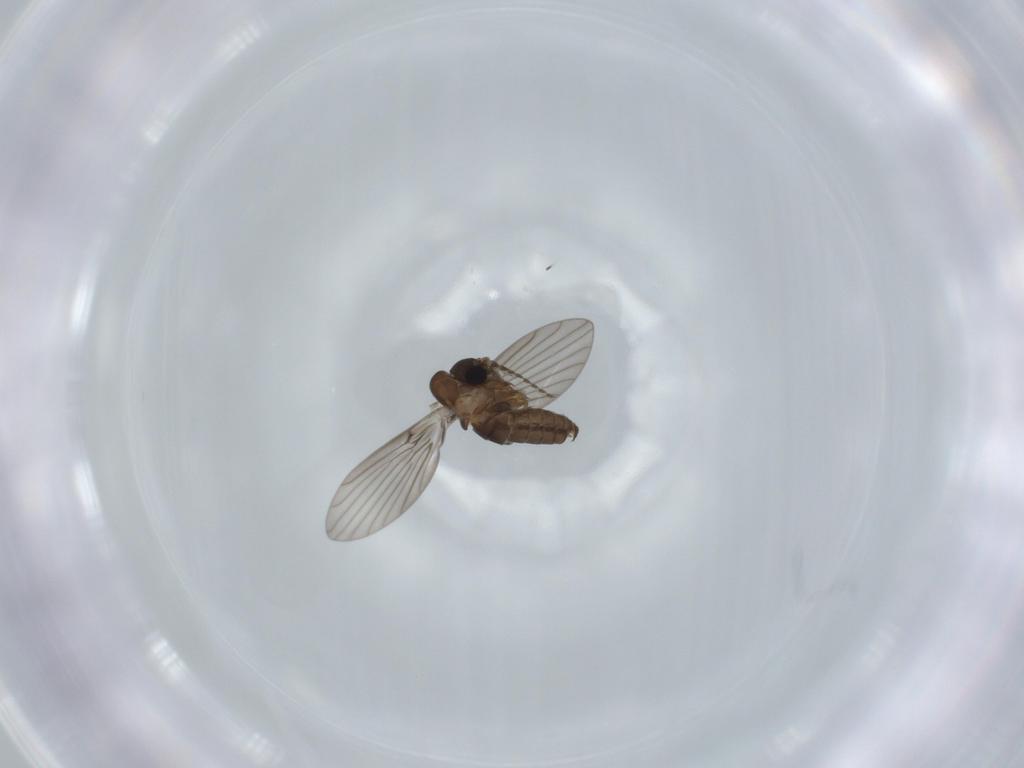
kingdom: Animalia
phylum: Arthropoda
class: Insecta
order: Diptera
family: Psychodidae
